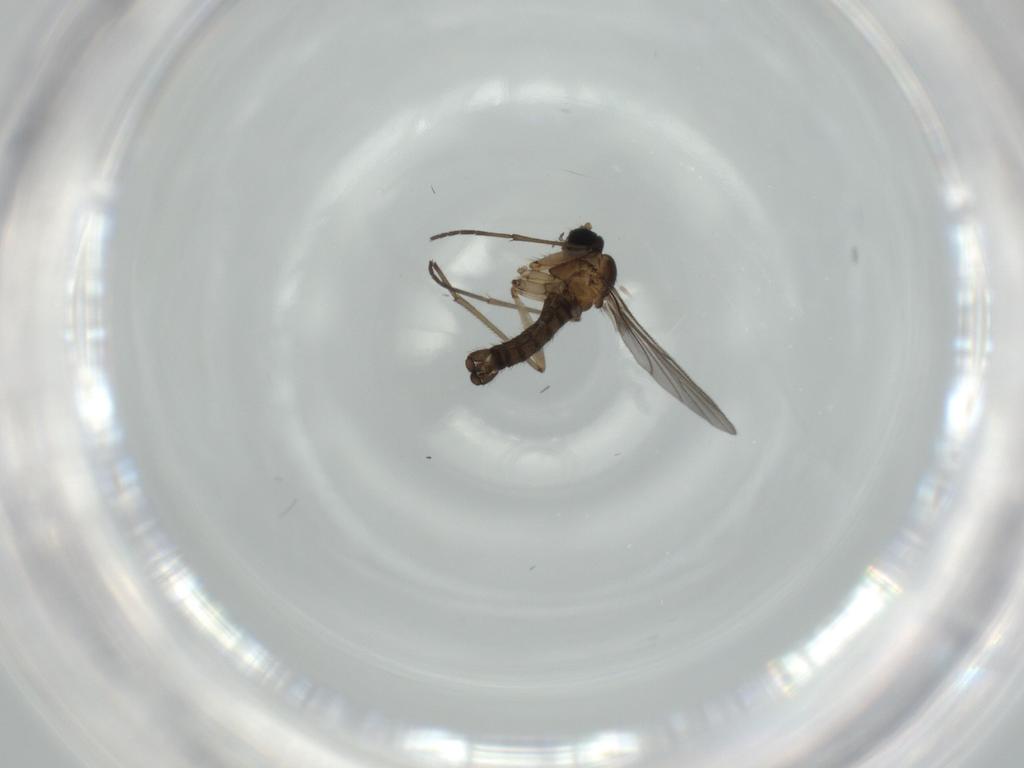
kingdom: Animalia
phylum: Arthropoda
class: Insecta
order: Diptera
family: Sciaridae
